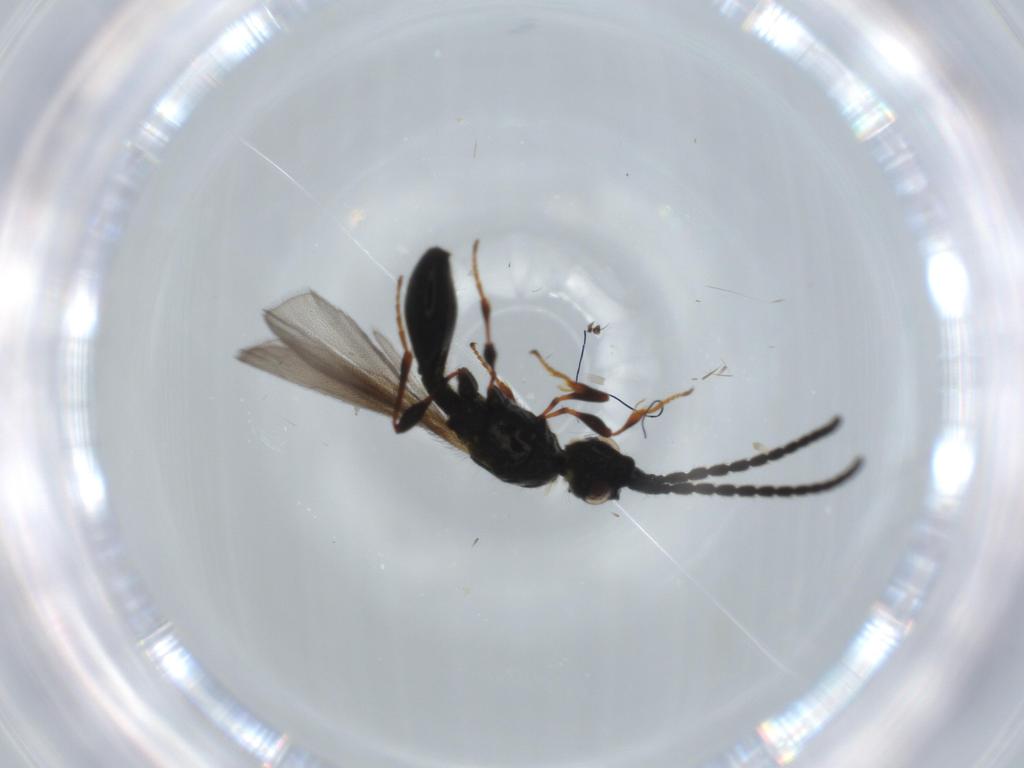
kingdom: Animalia
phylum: Arthropoda
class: Insecta
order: Hymenoptera
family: Diapriidae
